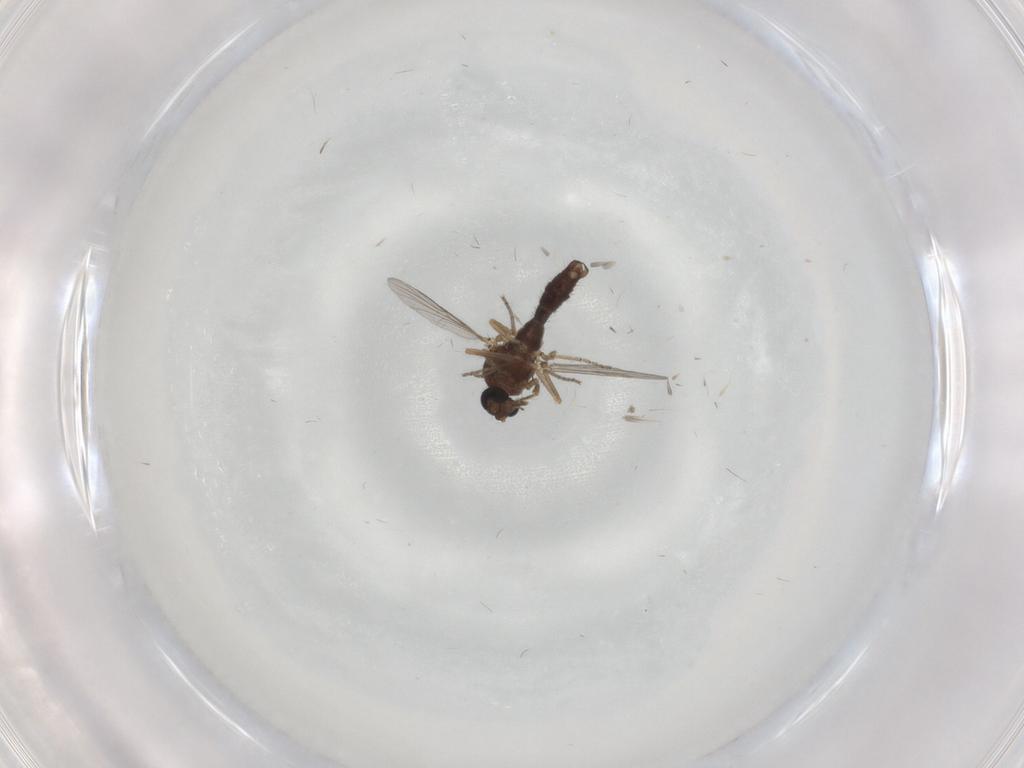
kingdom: Animalia
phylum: Arthropoda
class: Insecta
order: Diptera
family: Ceratopogonidae
